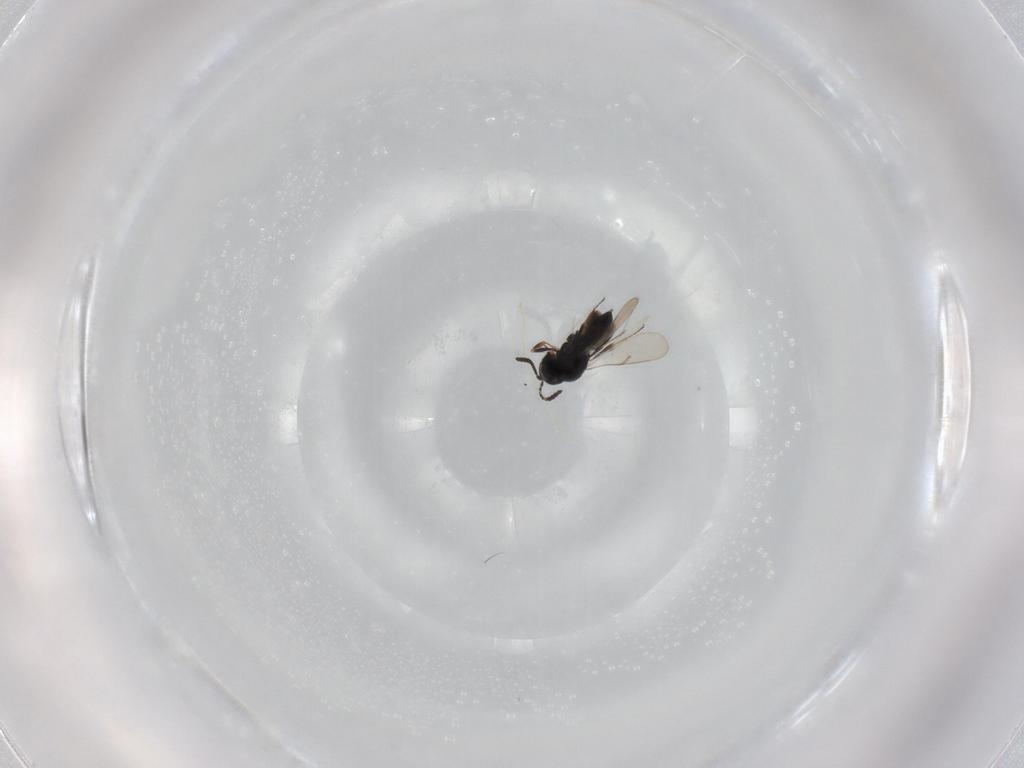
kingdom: Animalia
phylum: Arthropoda
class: Insecta
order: Hymenoptera
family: Scelionidae
